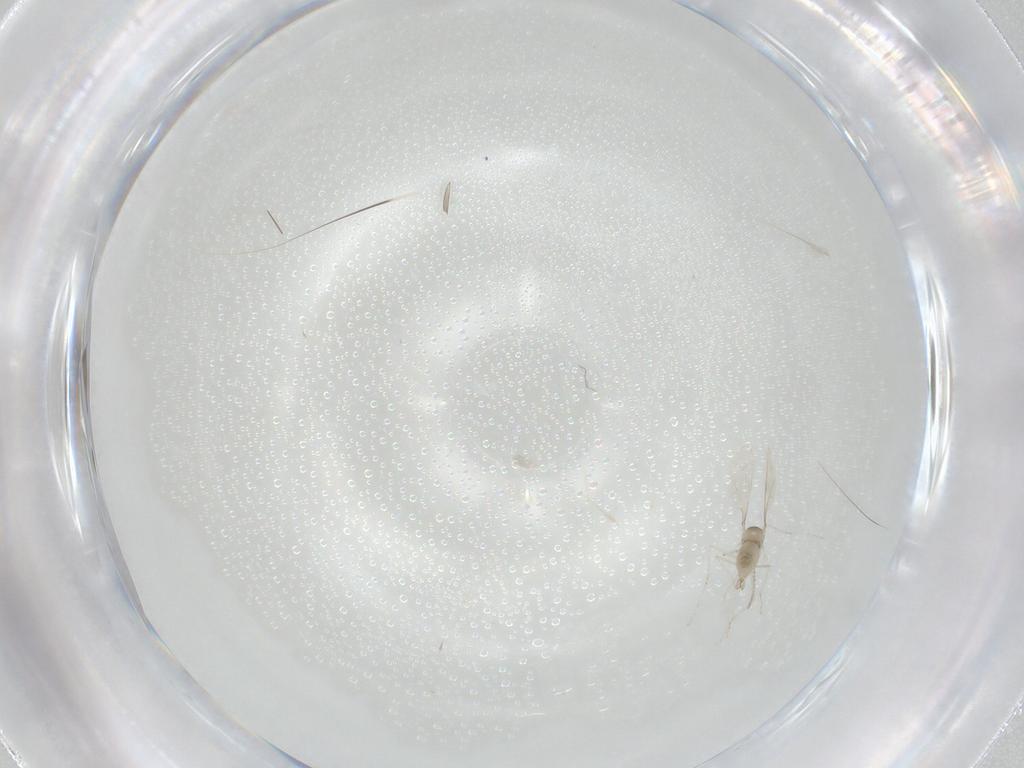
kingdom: Animalia
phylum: Arthropoda
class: Insecta
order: Diptera
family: Cecidomyiidae
